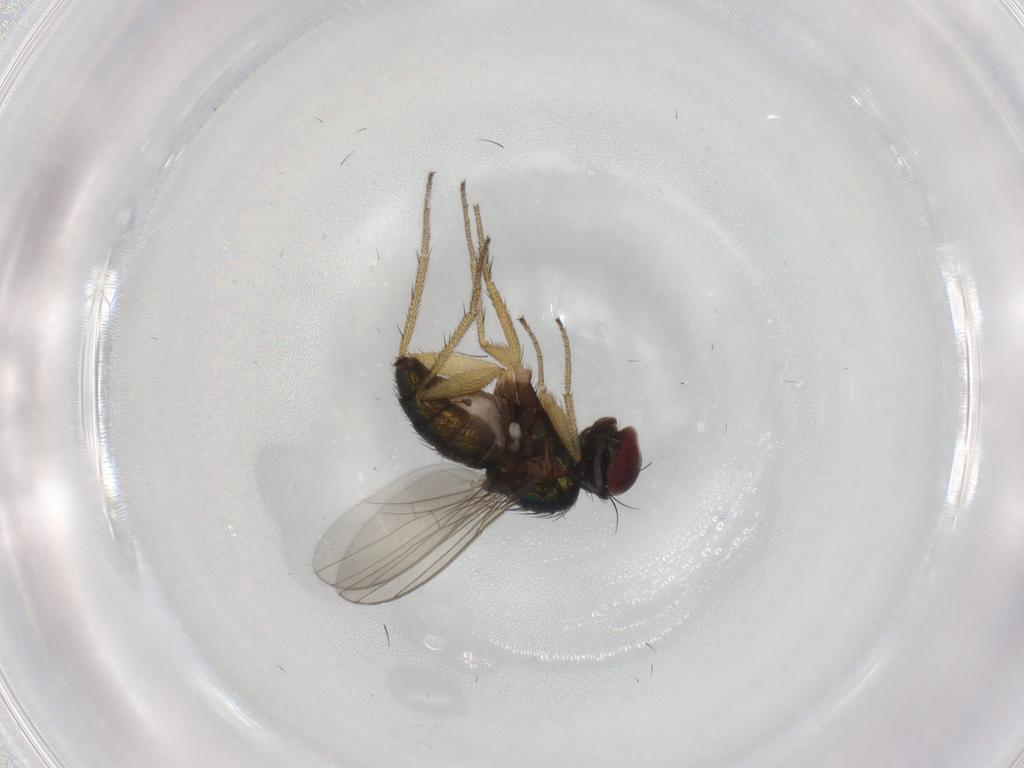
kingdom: Animalia
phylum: Arthropoda
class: Insecta
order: Diptera
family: Dolichopodidae
